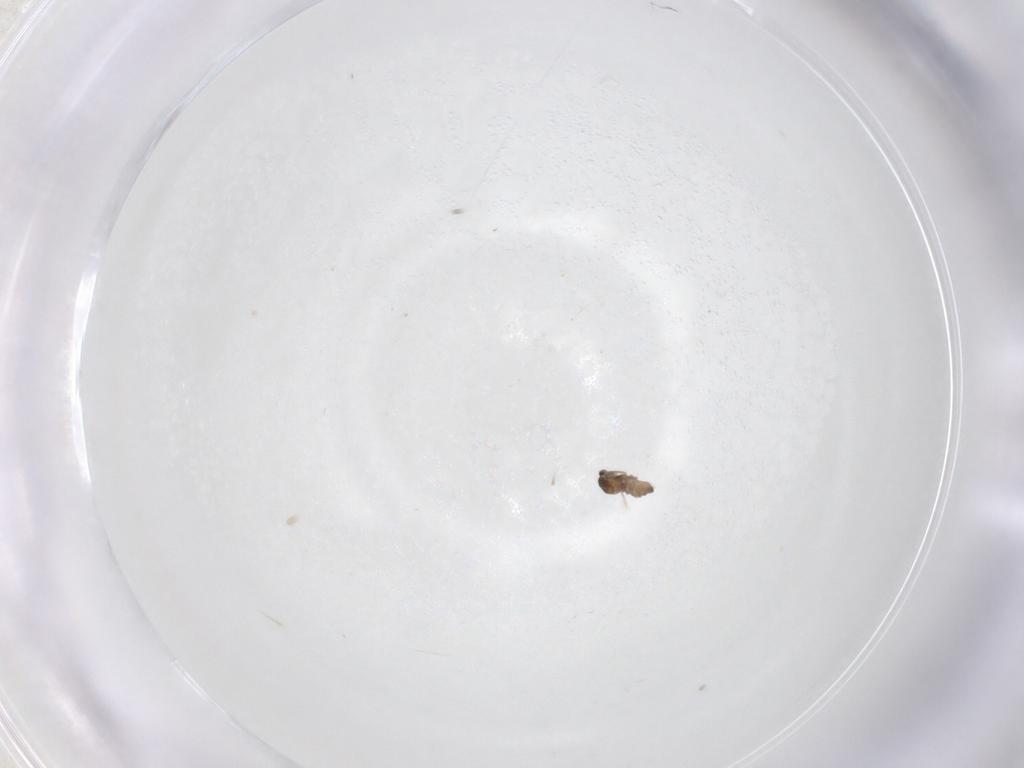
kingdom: Animalia
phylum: Arthropoda
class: Insecta
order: Diptera
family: Cecidomyiidae
